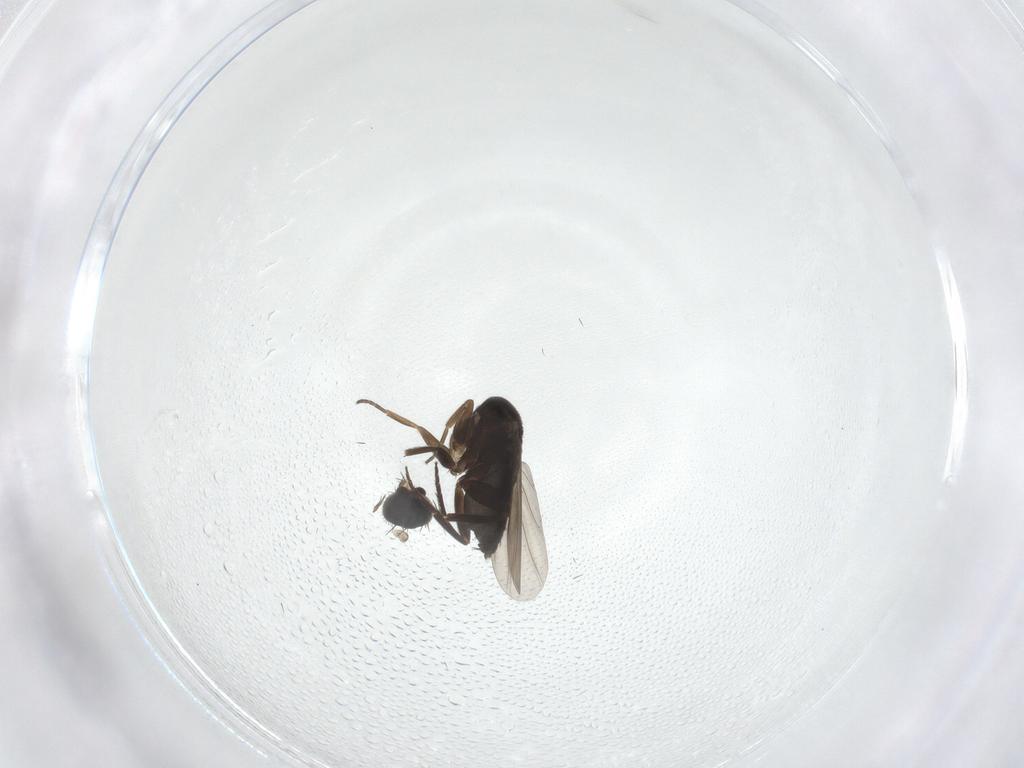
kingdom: Animalia
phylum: Arthropoda
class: Insecta
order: Diptera
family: Phoridae
